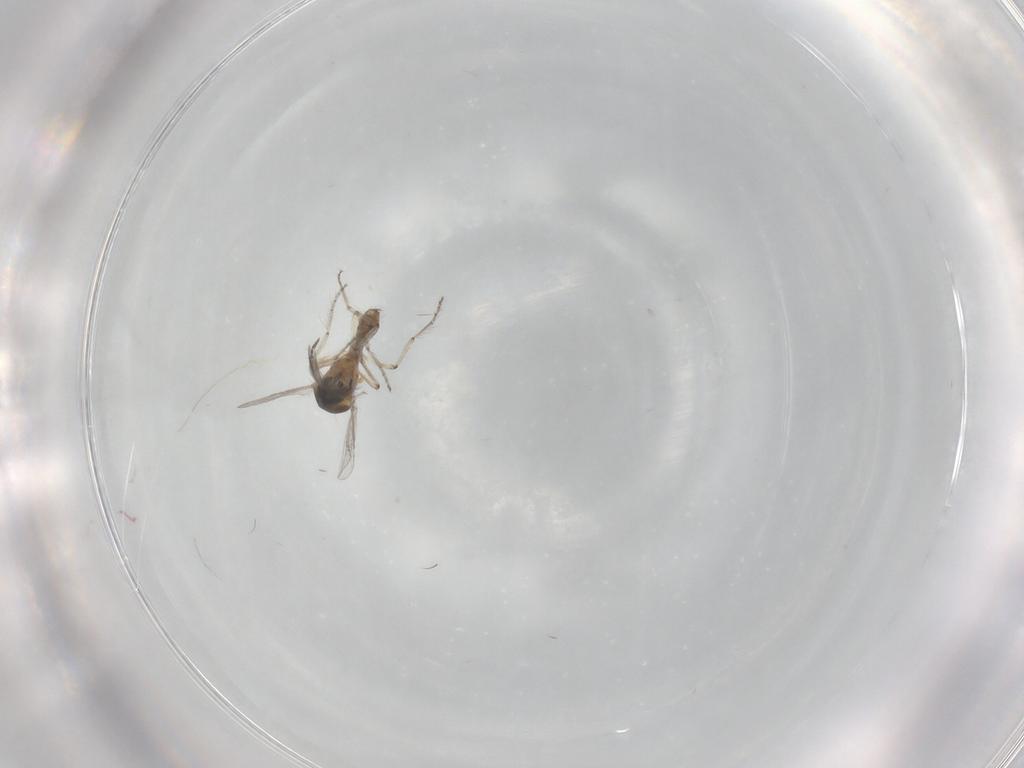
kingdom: Animalia
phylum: Arthropoda
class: Insecta
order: Diptera
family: Ceratopogonidae
